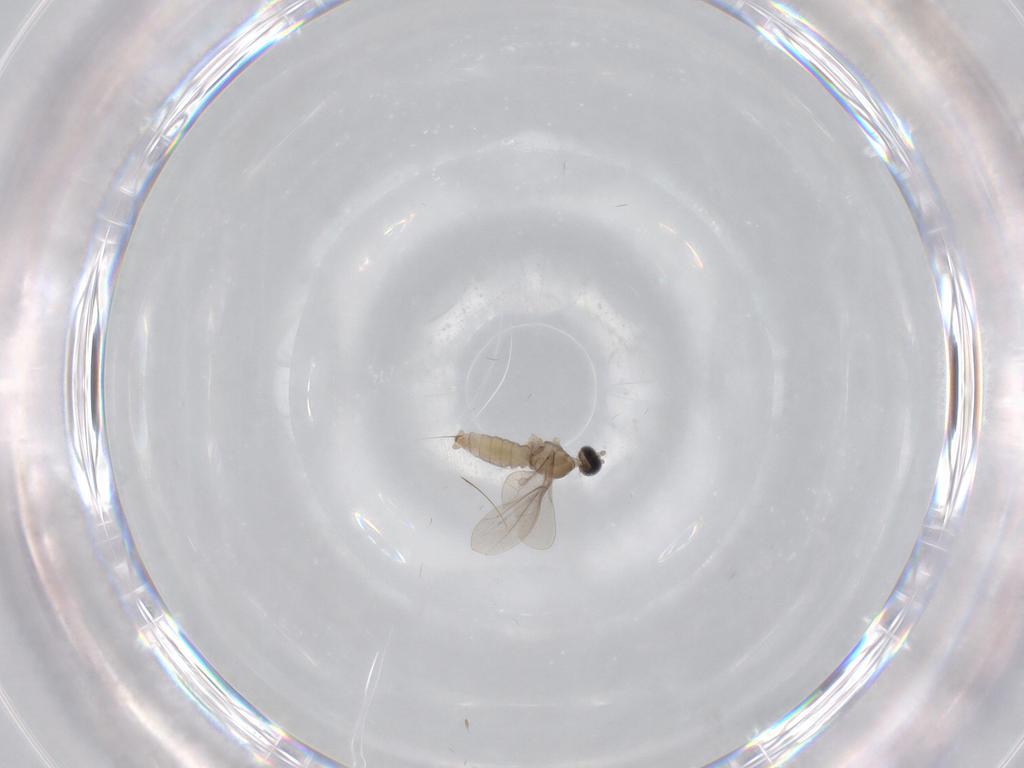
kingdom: Animalia
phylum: Arthropoda
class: Insecta
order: Diptera
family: Cecidomyiidae
